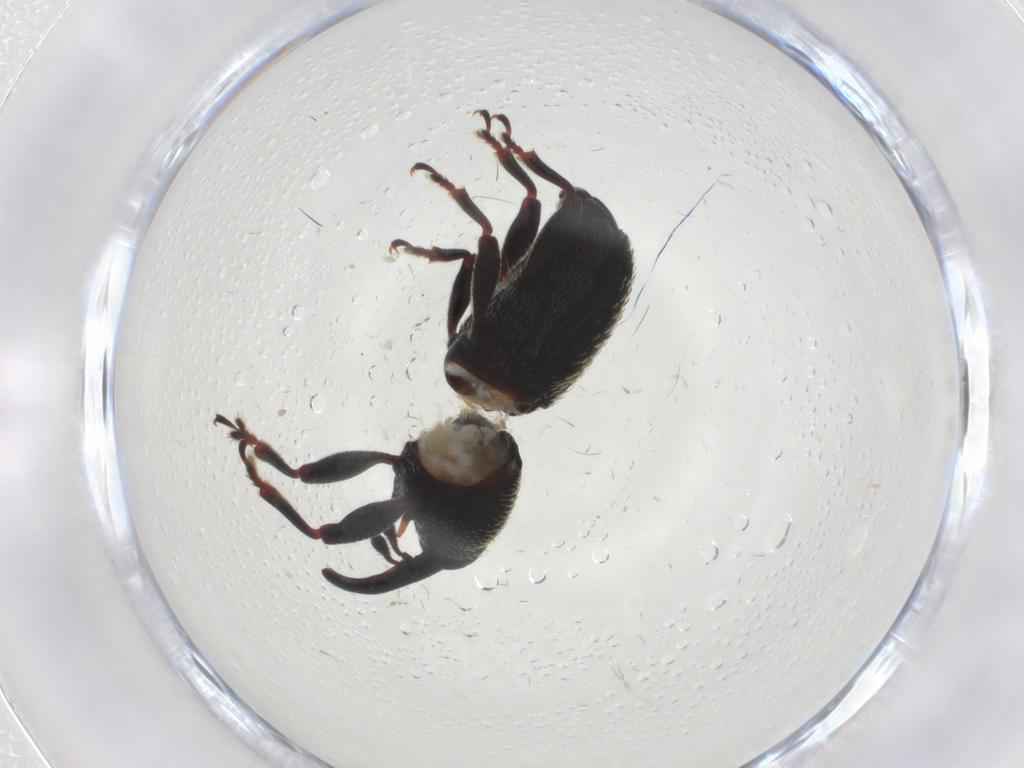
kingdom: Animalia
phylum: Arthropoda
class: Insecta
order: Coleoptera
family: Curculionidae
